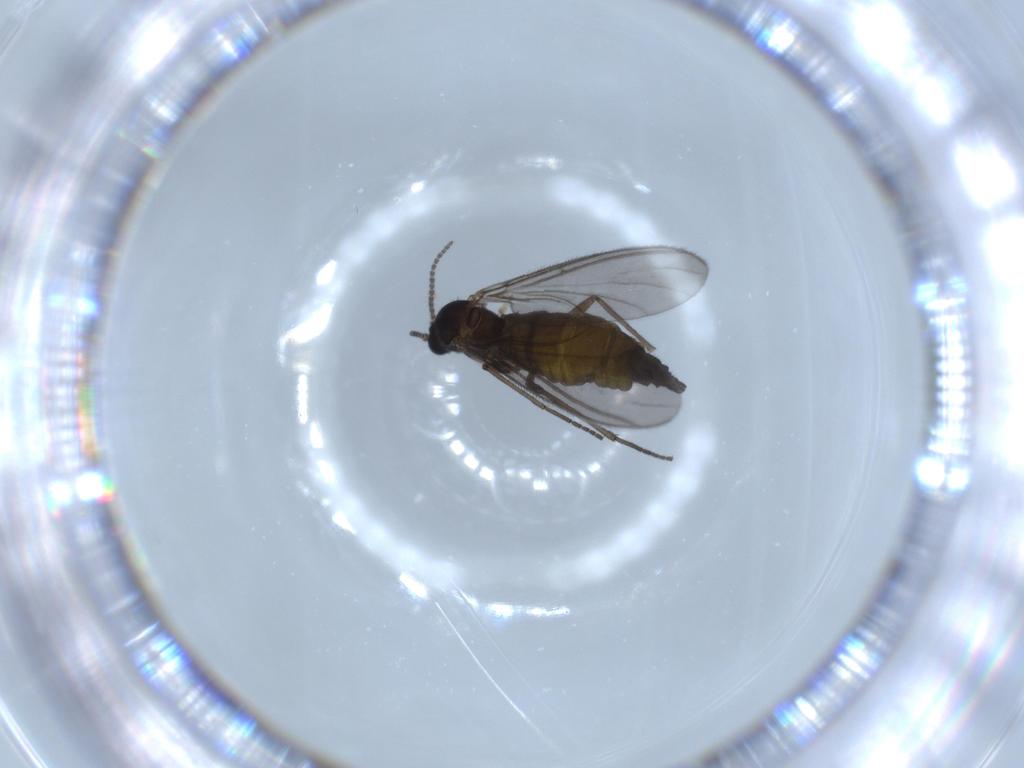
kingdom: Animalia
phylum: Arthropoda
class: Insecta
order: Diptera
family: Sciaridae
